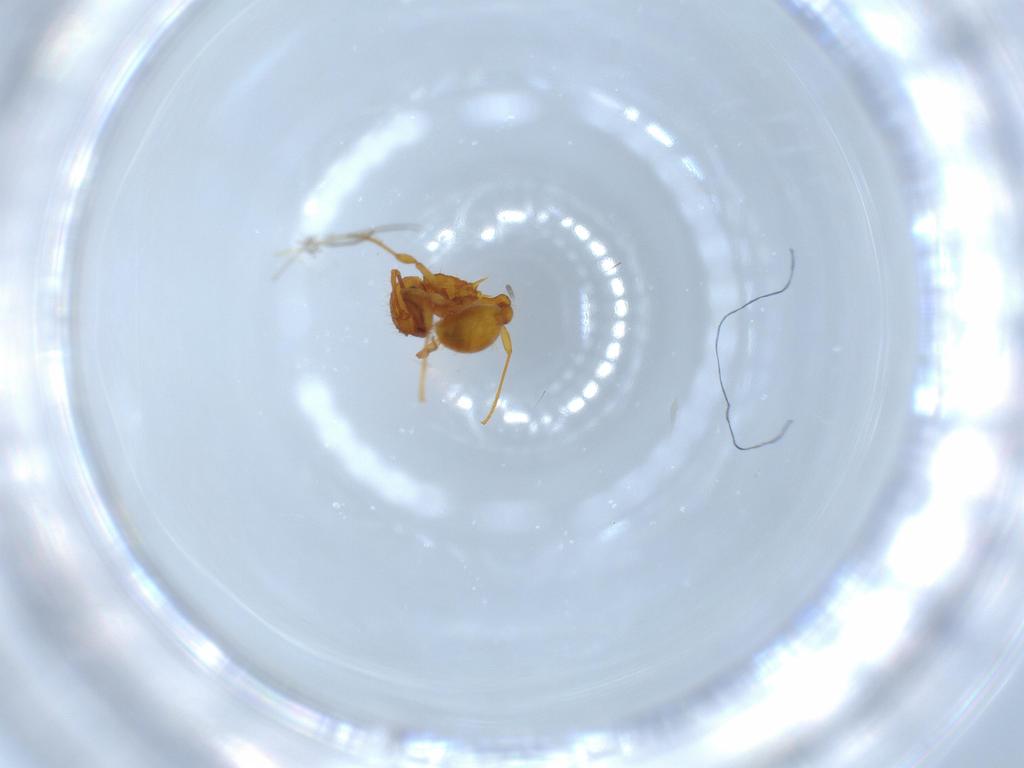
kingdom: Animalia
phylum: Arthropoda
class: Insecta
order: Hymenoptera
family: Formicidae
